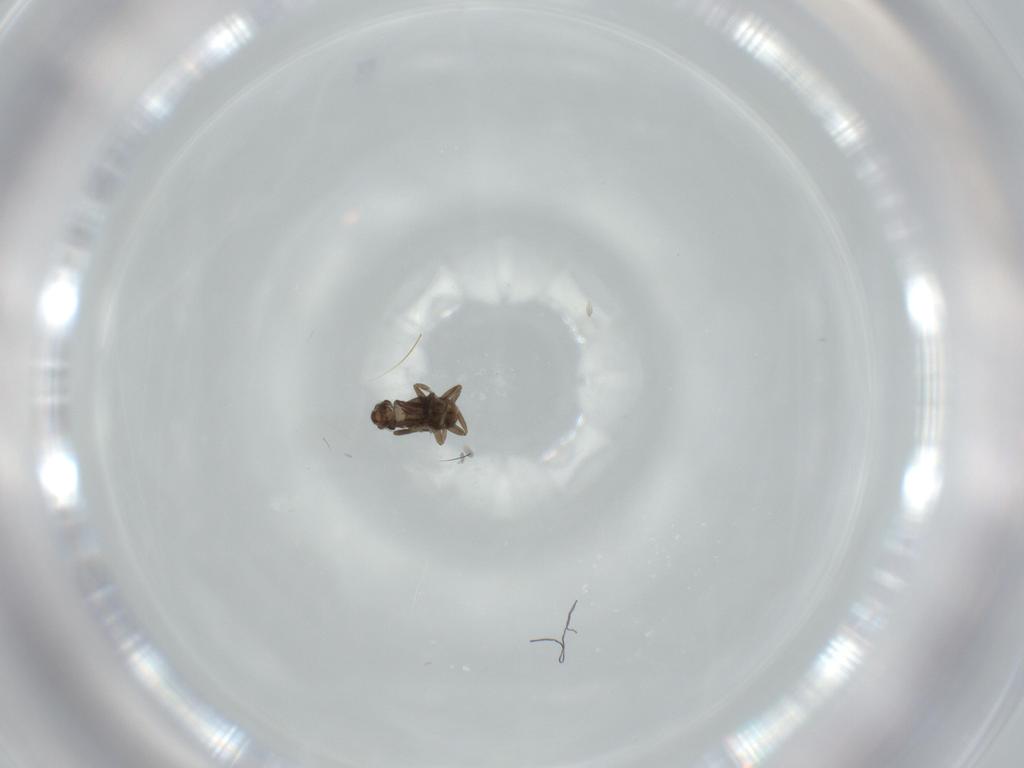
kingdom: Animalia
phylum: Arthropoda
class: Insecta
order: Diptera
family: Phoridae
